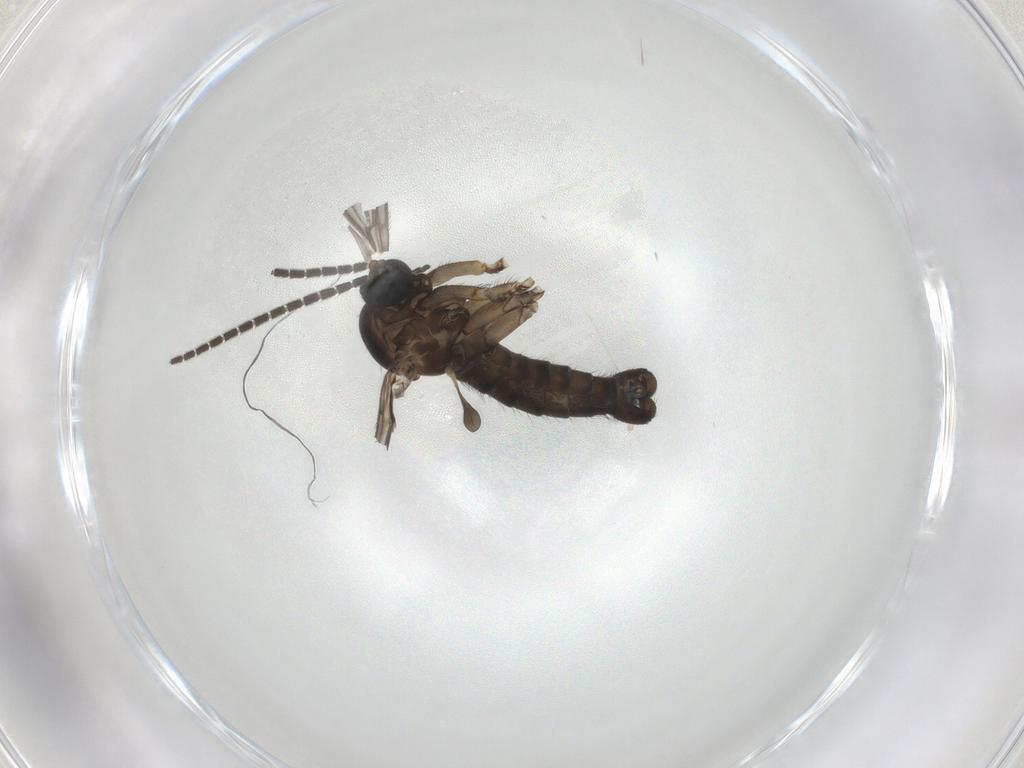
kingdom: Animalia
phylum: Arthropoda
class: Insecta
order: Diptera
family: Sciaridae
